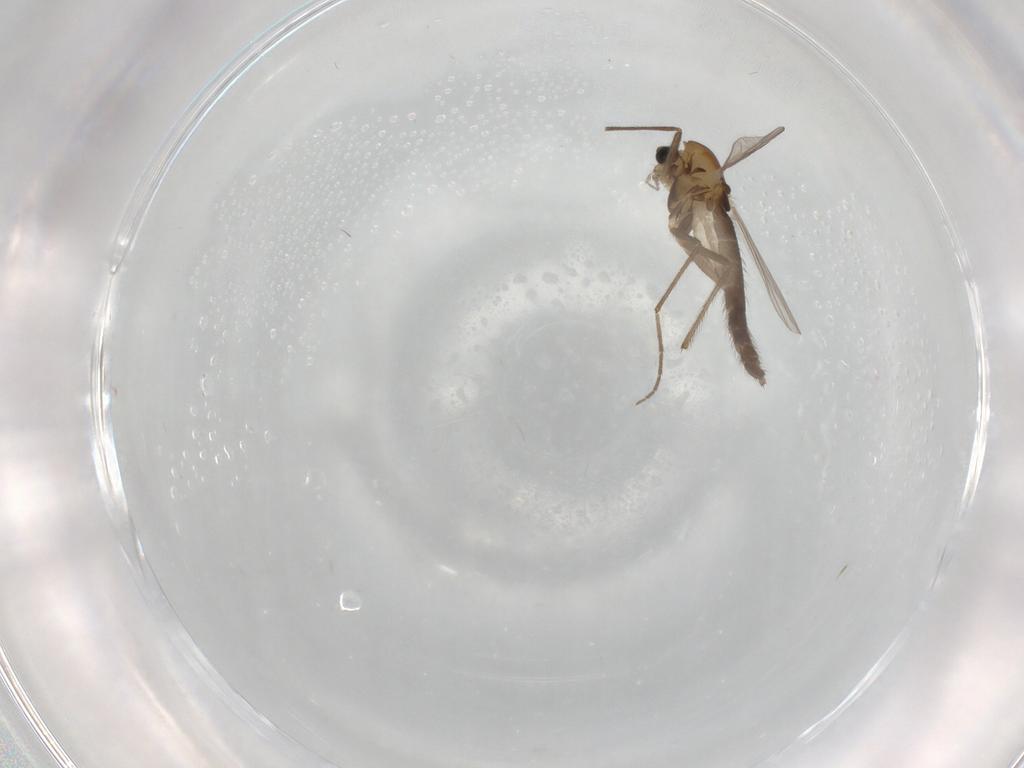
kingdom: Animalia
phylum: Arthropoda
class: Insecta
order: Diptera
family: Chironomidae
